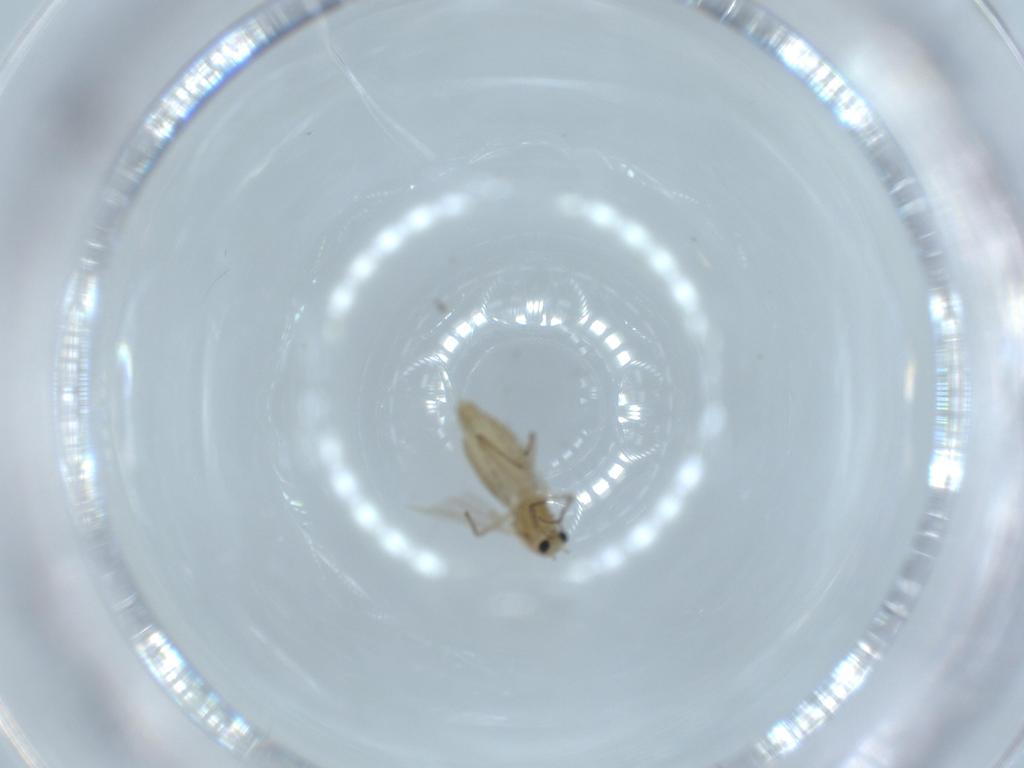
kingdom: Animalia
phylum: Arthropoda
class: Insecta
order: Diptera
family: Chironomidae
